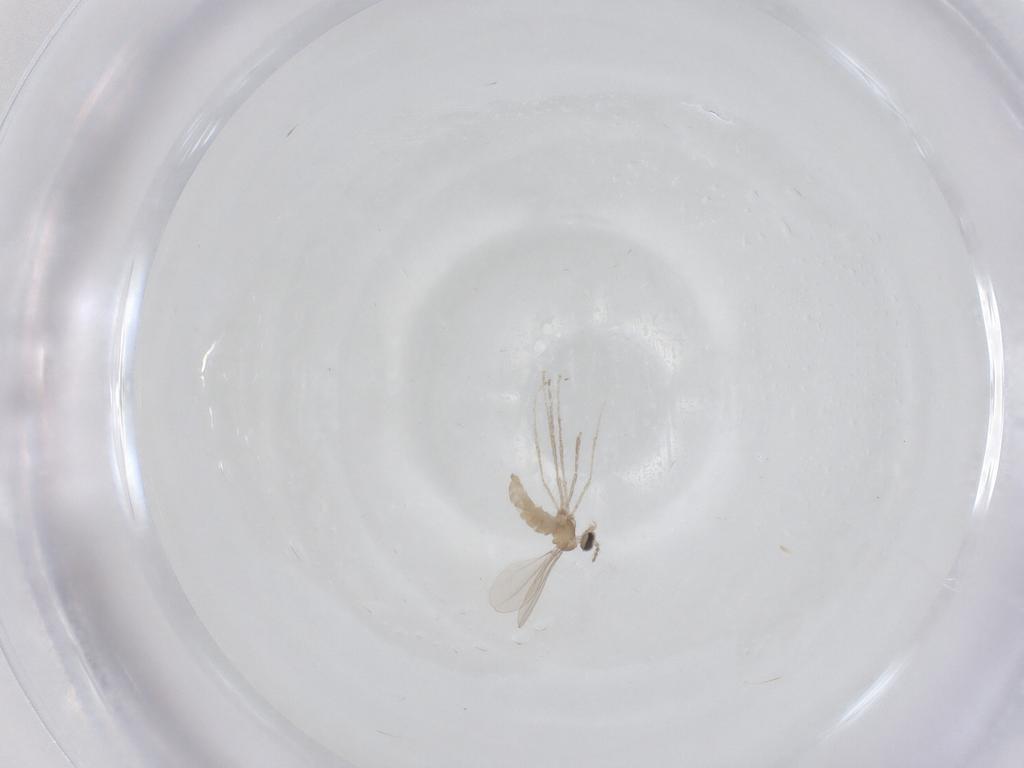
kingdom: Animalia
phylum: Arthropoda
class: Insecta
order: Diptera
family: Cecidomyiidae
